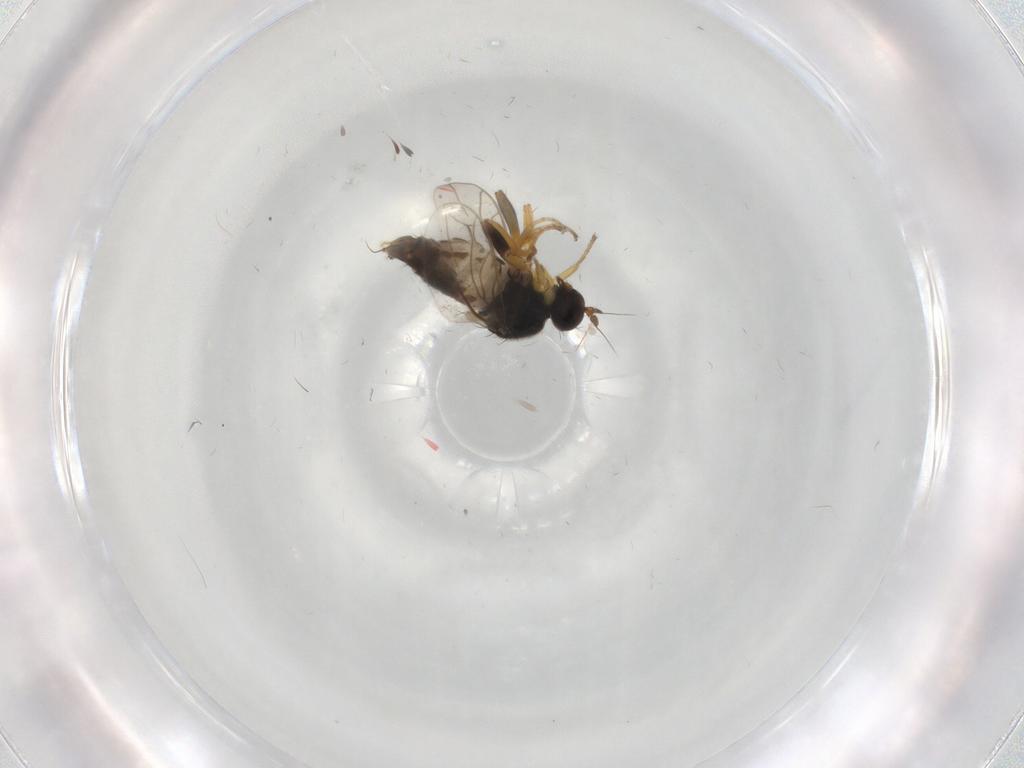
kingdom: Animalia
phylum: Arthropoda
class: Insecta
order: Diptera
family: Hybotidae
